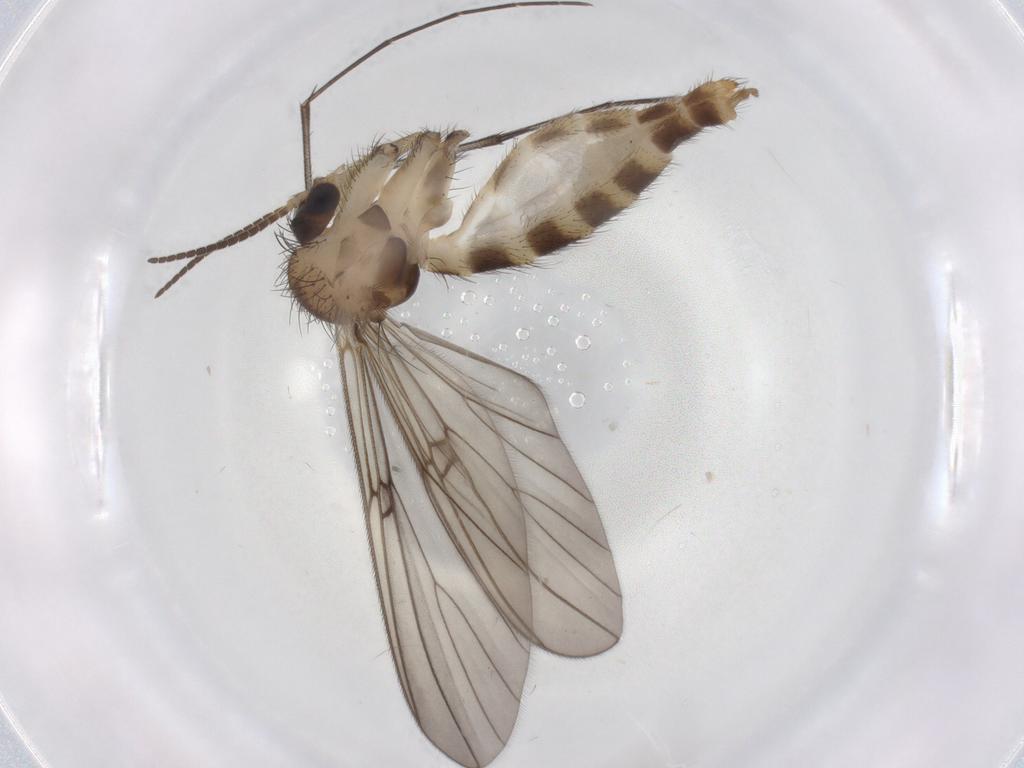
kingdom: Animalia
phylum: Arthropoda
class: Insecta
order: Diptera
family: Mycetophilidae
